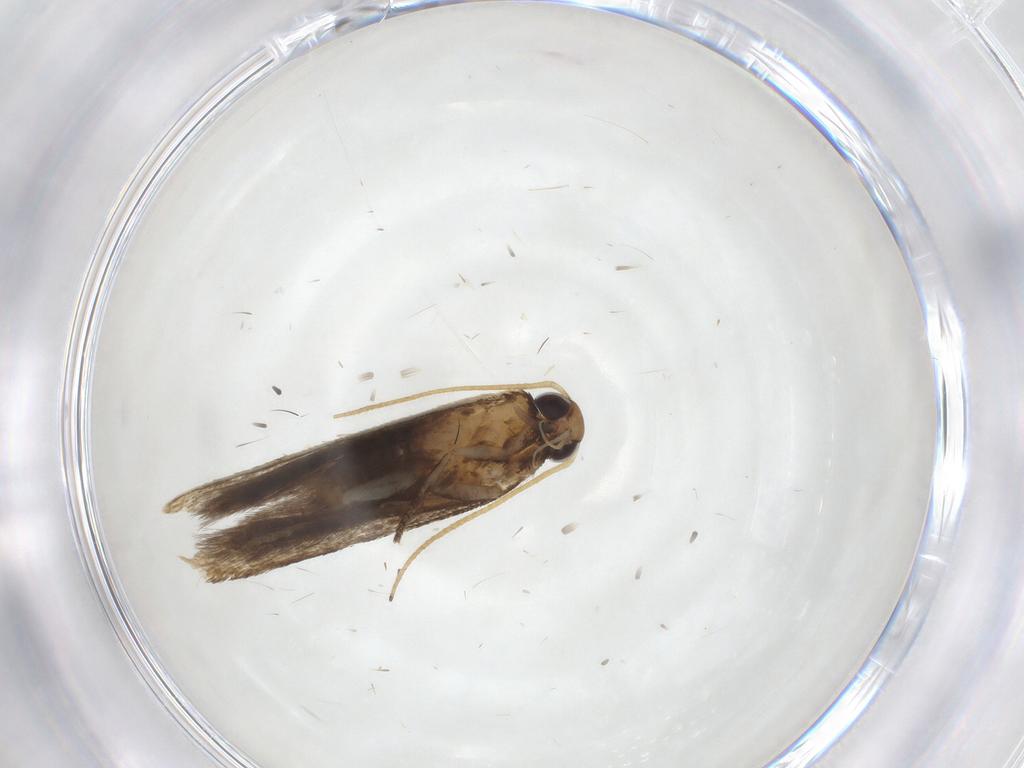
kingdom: Animalia
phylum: Arthropoda
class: Insecta
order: Lepidoptera
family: Gelechiidae
